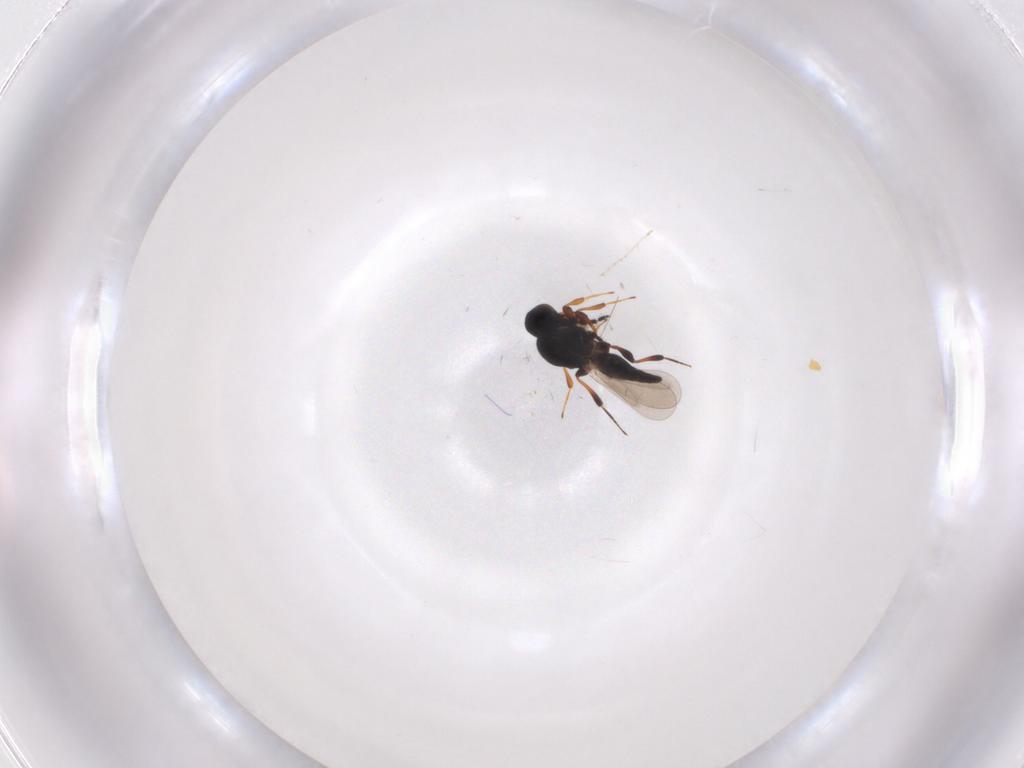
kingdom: Animalia
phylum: Arthropoda
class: Insecta
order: Hymenoptera
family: Platygastridae
